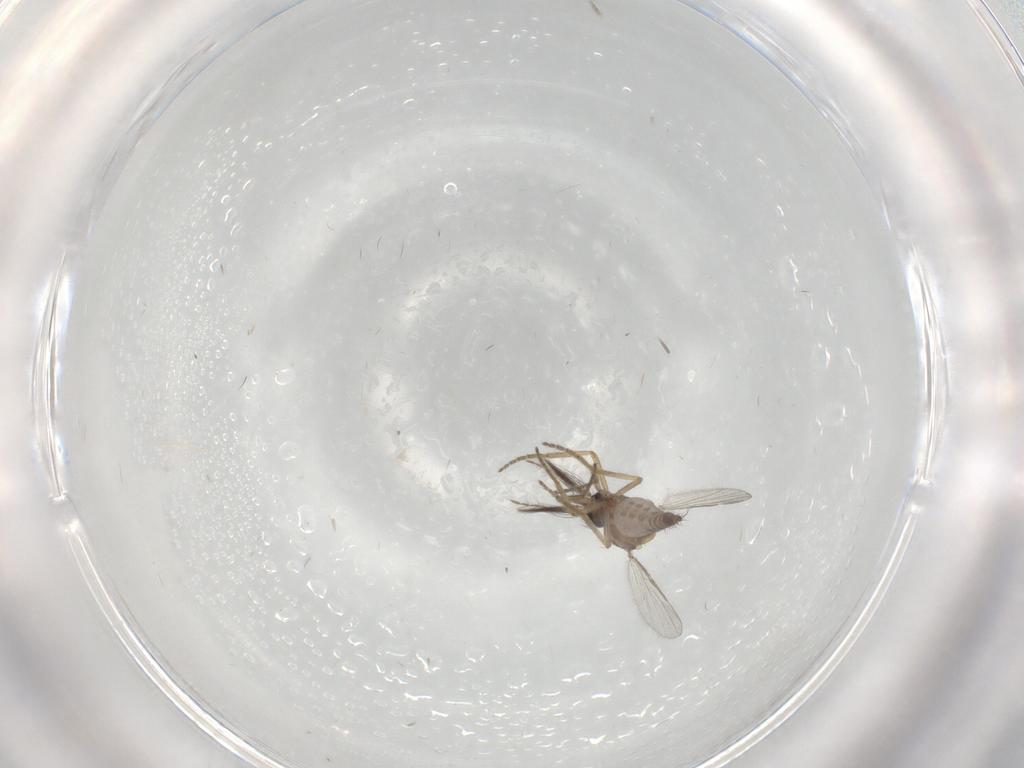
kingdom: Animalia
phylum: Arthropoda
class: Insecta
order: Diptera
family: Chironomidae
